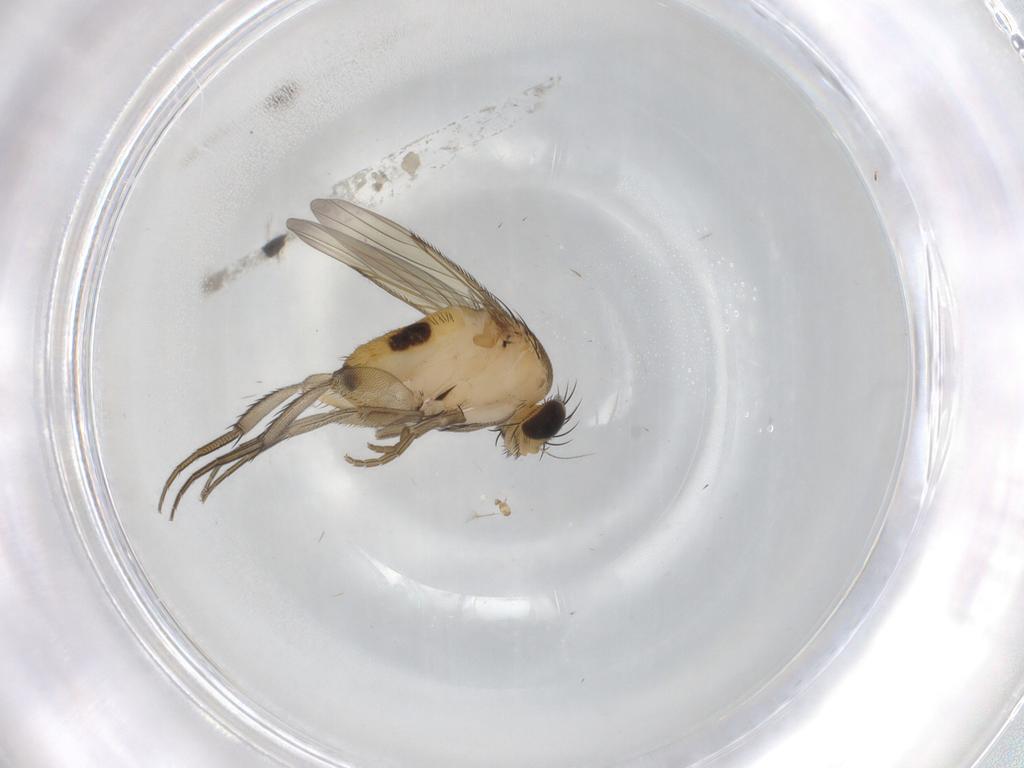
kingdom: Animalia
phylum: Arthropoda
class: Insecta
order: Diptera
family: Phoridae
